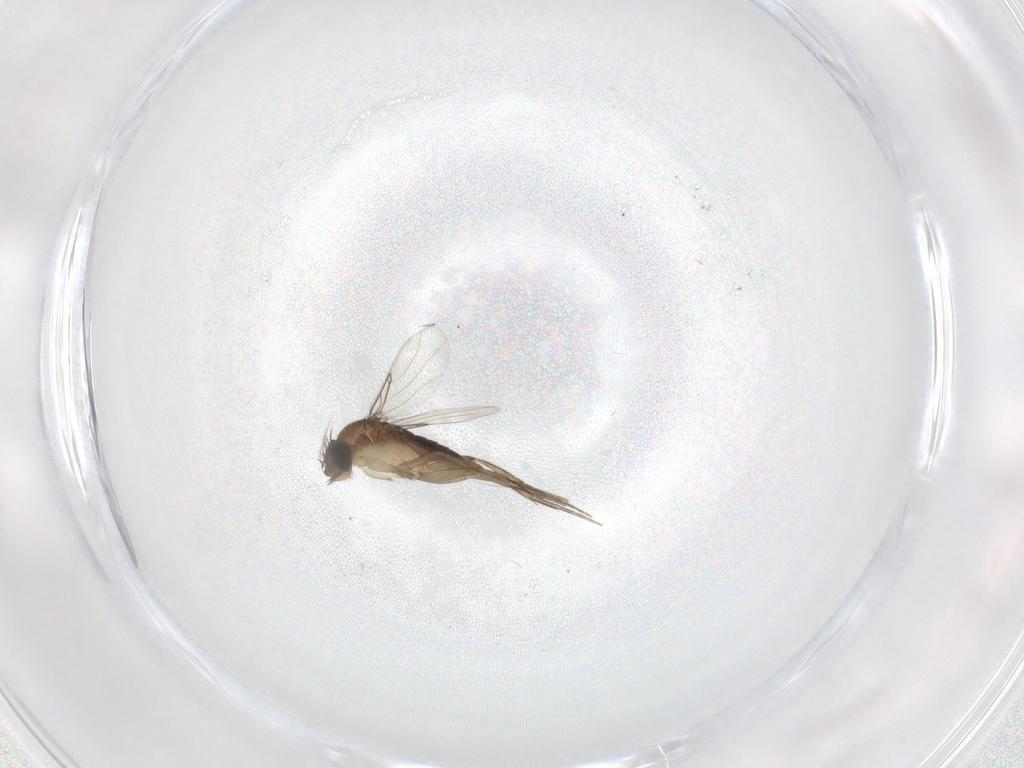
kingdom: Animalia
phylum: Arthropoda
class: Insecta
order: Diptera
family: Phoridae
